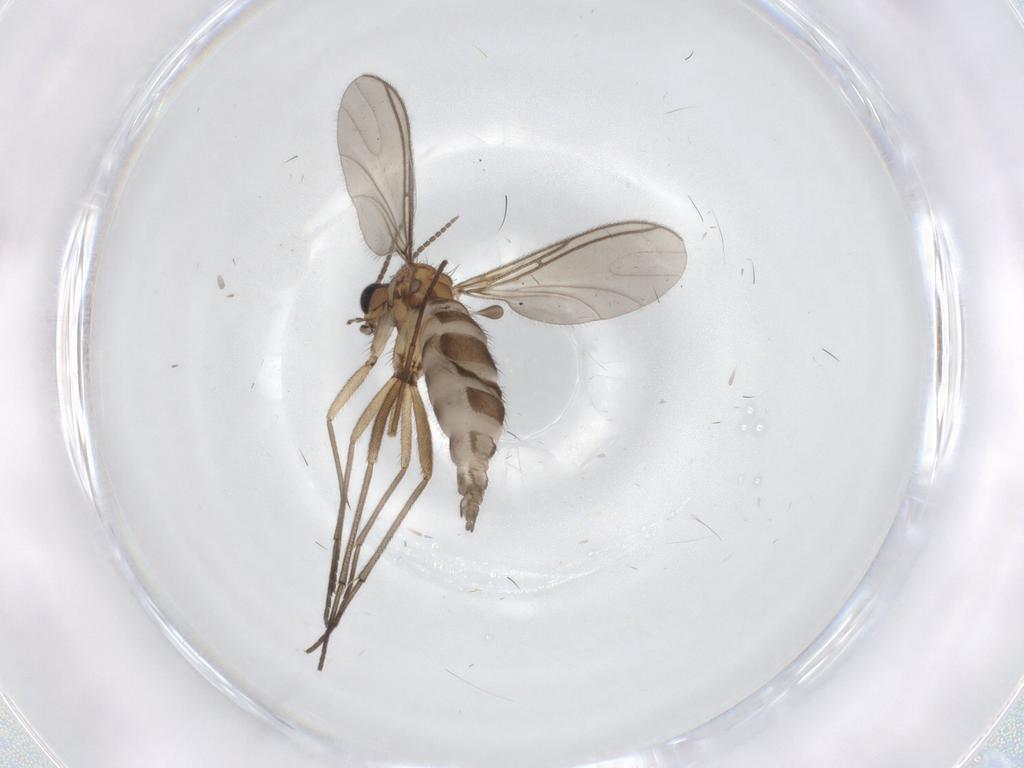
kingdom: Animalia
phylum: Arthropoda
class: Insecta
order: Diptera
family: Sciaridae
